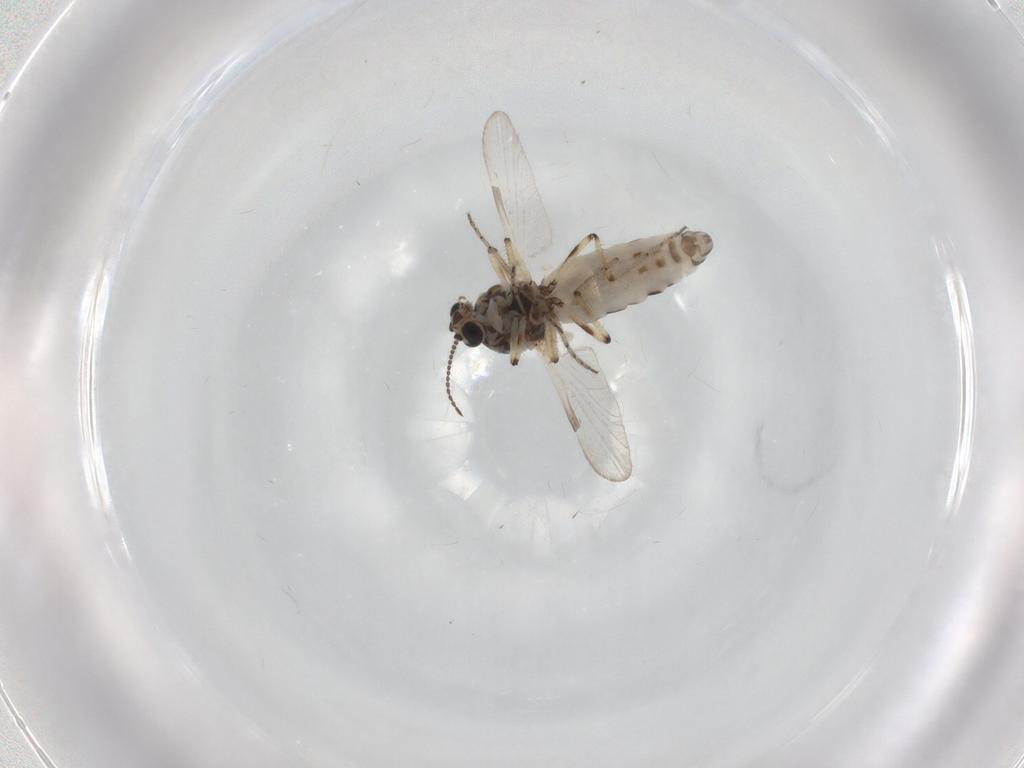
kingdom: Animalia
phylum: Arthropoda
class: Insecta
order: Diptera
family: Ceratopogonidae
